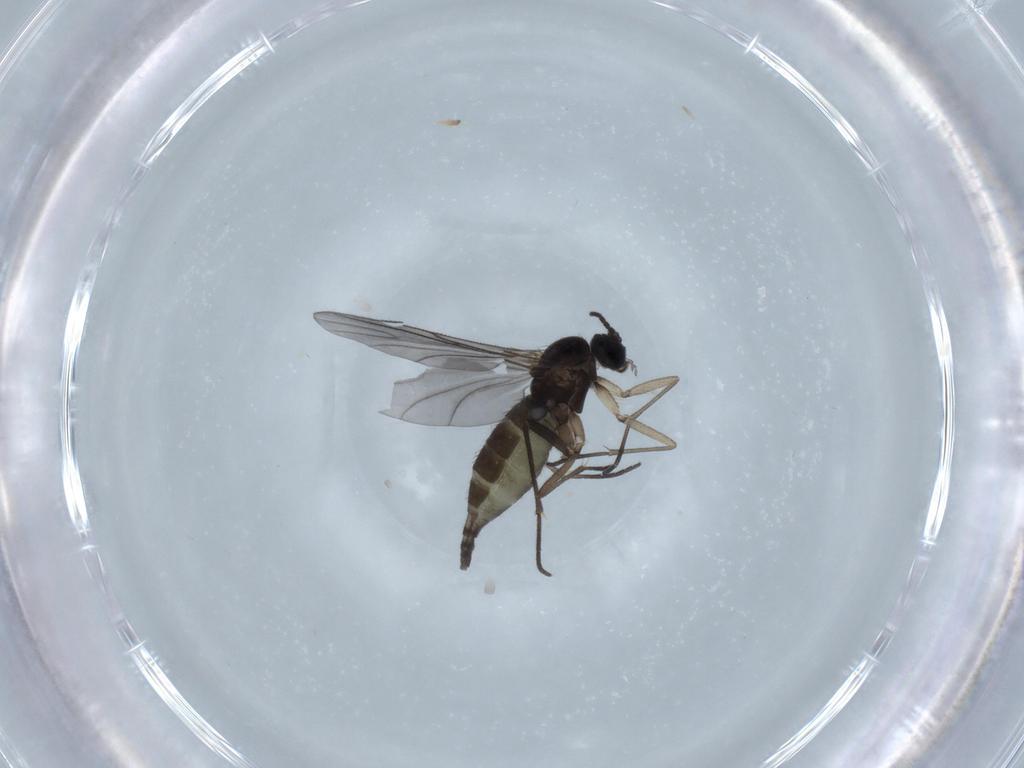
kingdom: Animalia
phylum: Arthropoda
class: Insecta
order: Diptera
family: Sciaridae
